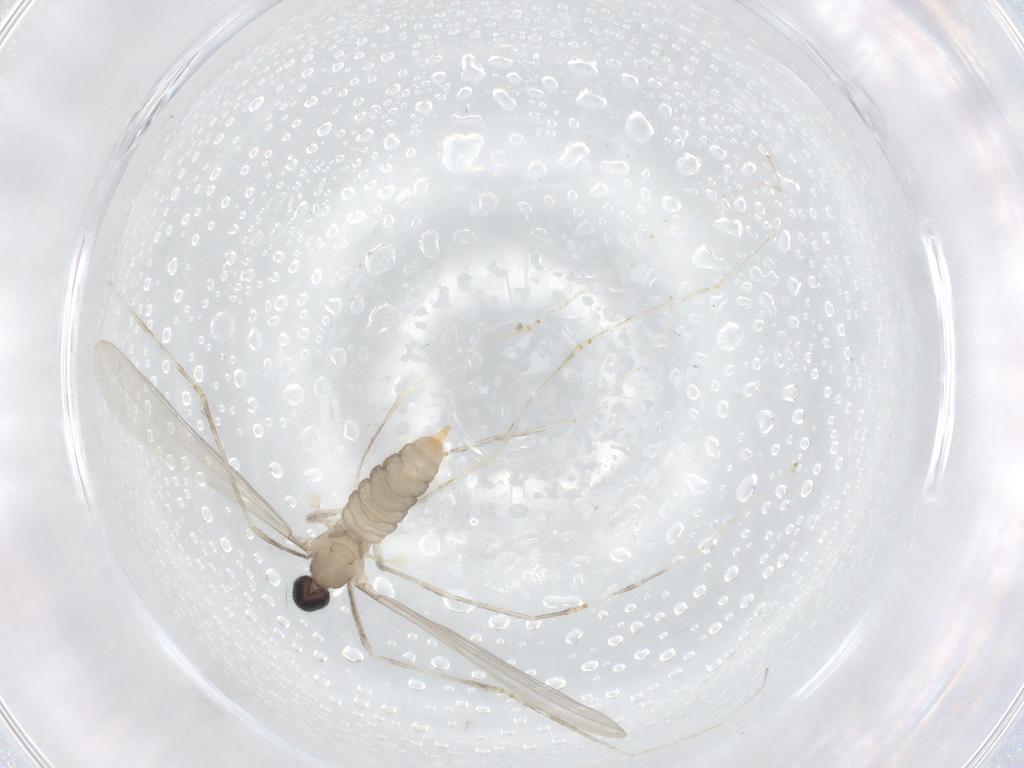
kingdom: Animalia
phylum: Arthropoda
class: Insecta
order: Diptera
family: Cecidomyiidae
